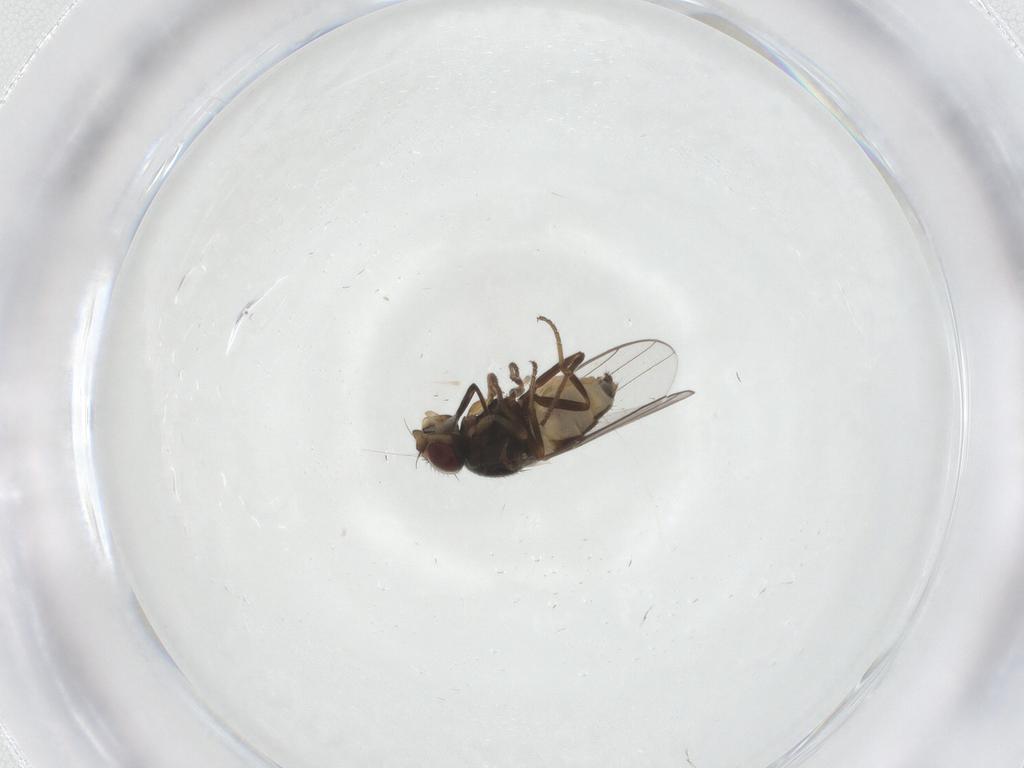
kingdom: Animalia
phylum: Arthropoda
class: Insecta
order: Diptera
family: Chloropidae
